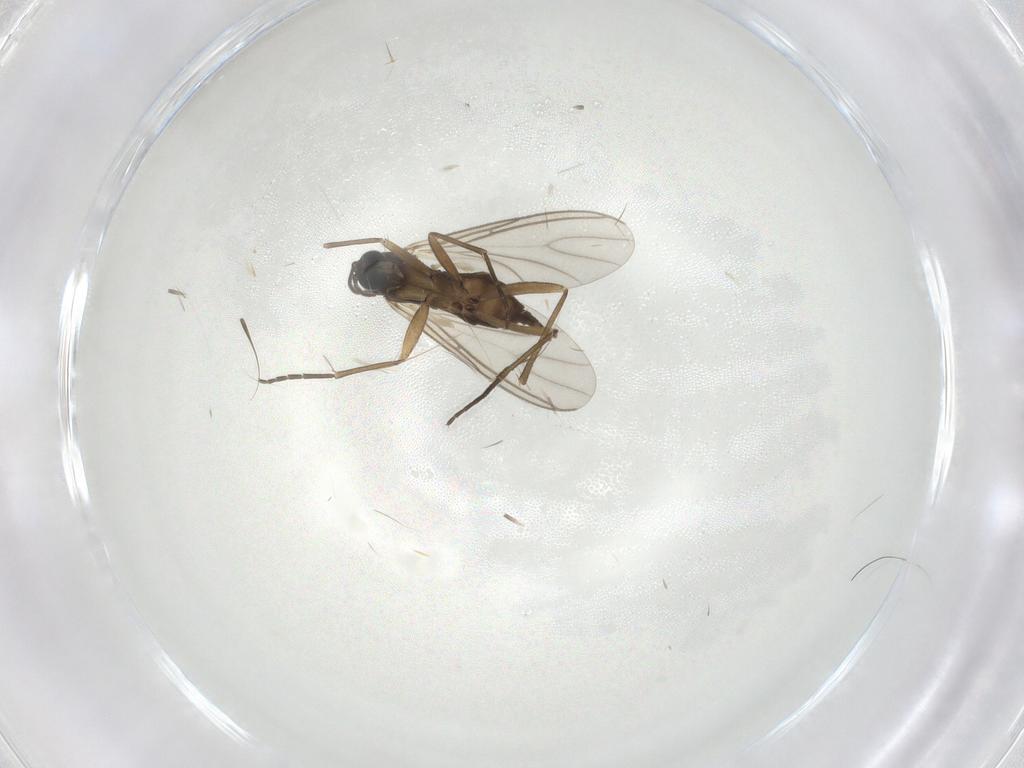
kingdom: Animalia
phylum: Arthropoda
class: Insecta
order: Diptera
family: Sciaridae
